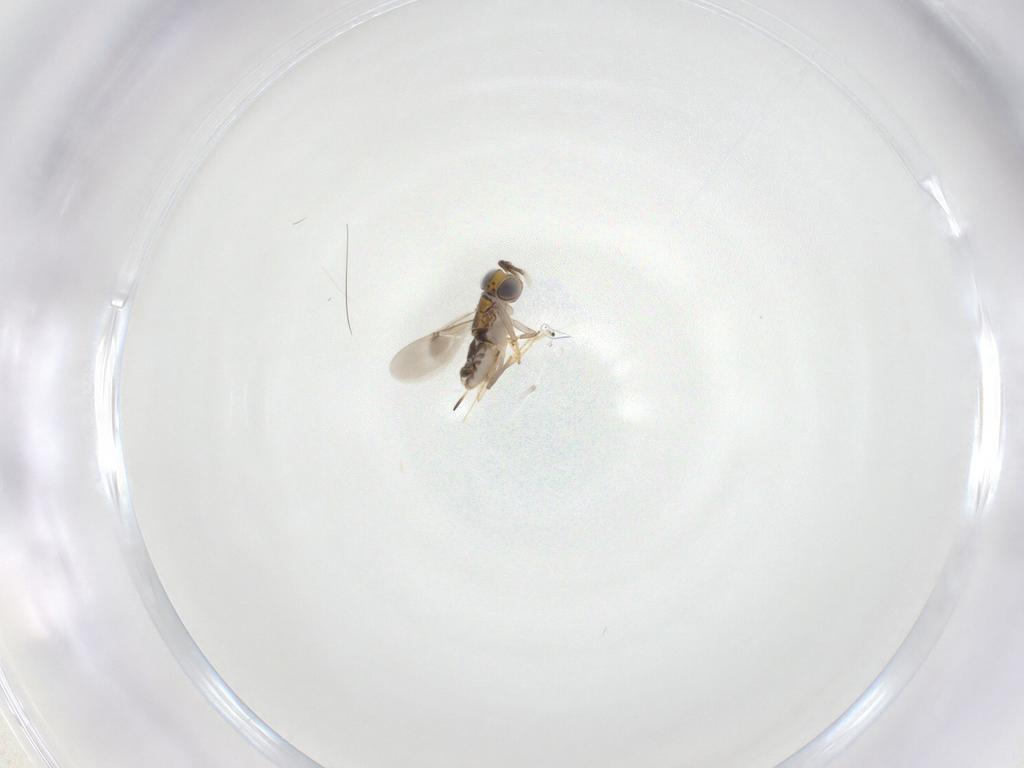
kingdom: Animalia
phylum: Arthropoda
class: Insecta
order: Hymenoptera
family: Encyrtidae
